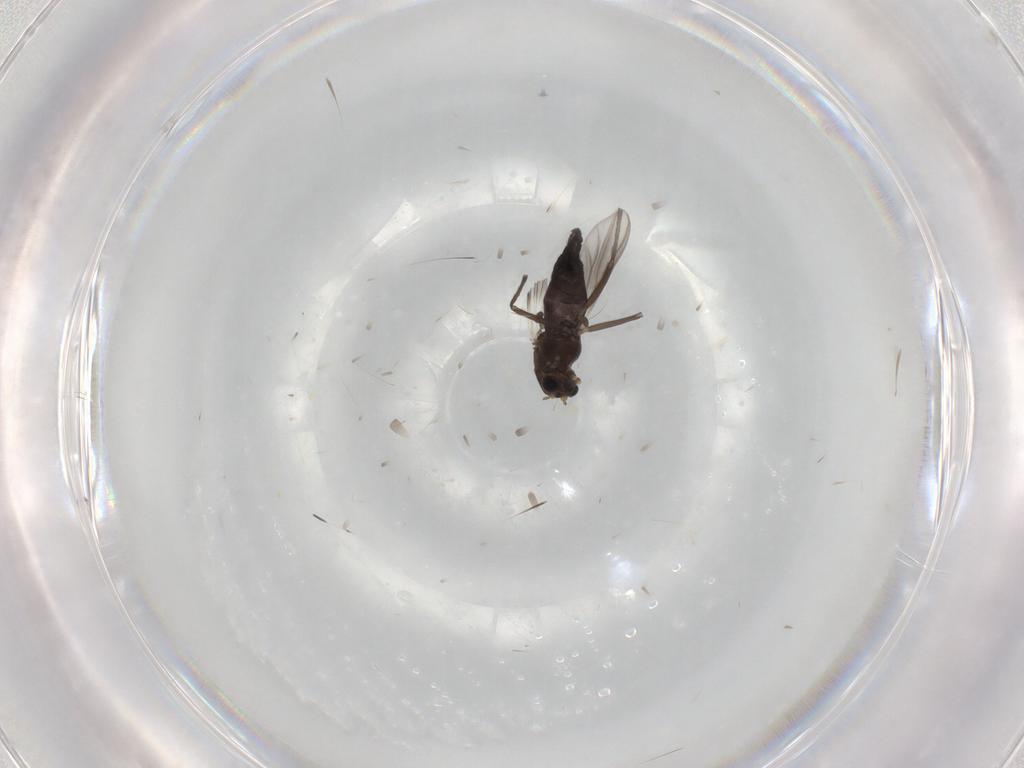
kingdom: Animalia
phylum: Arthropoda
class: Insecta
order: Diptera
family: Chironomidae
